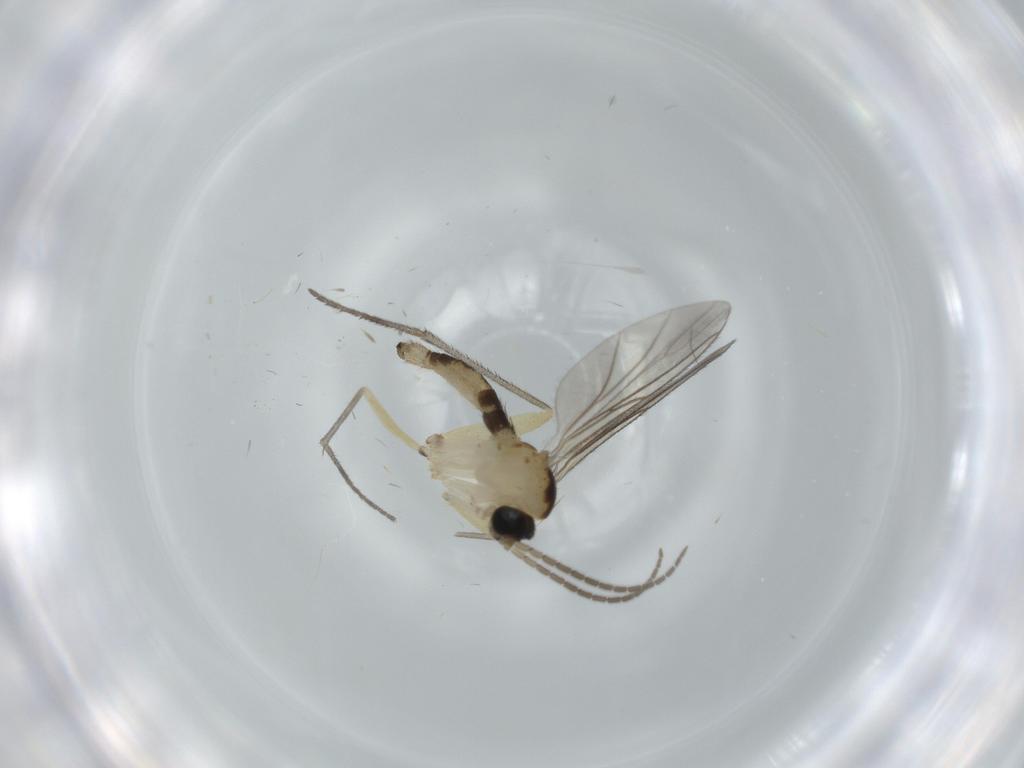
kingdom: Animalia
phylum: Arthropoda
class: Insecta
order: Diptera
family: Sciaridae
